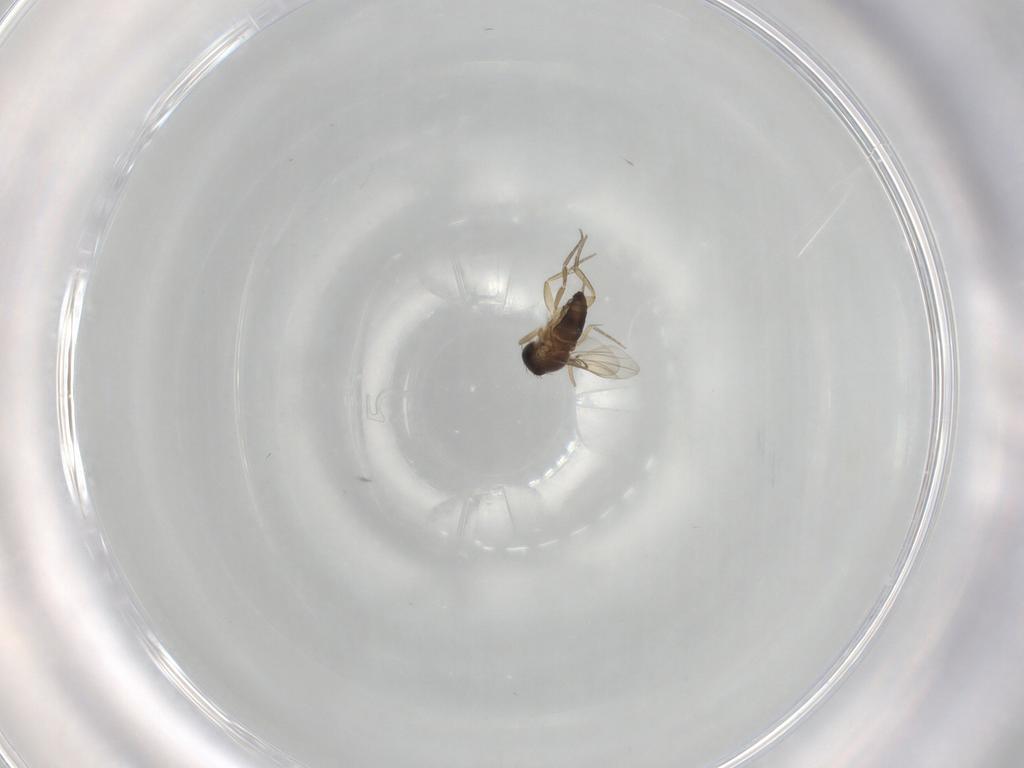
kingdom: Animalia
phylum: Arthropoda
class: Insecta
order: Diptera
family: Phoridae
